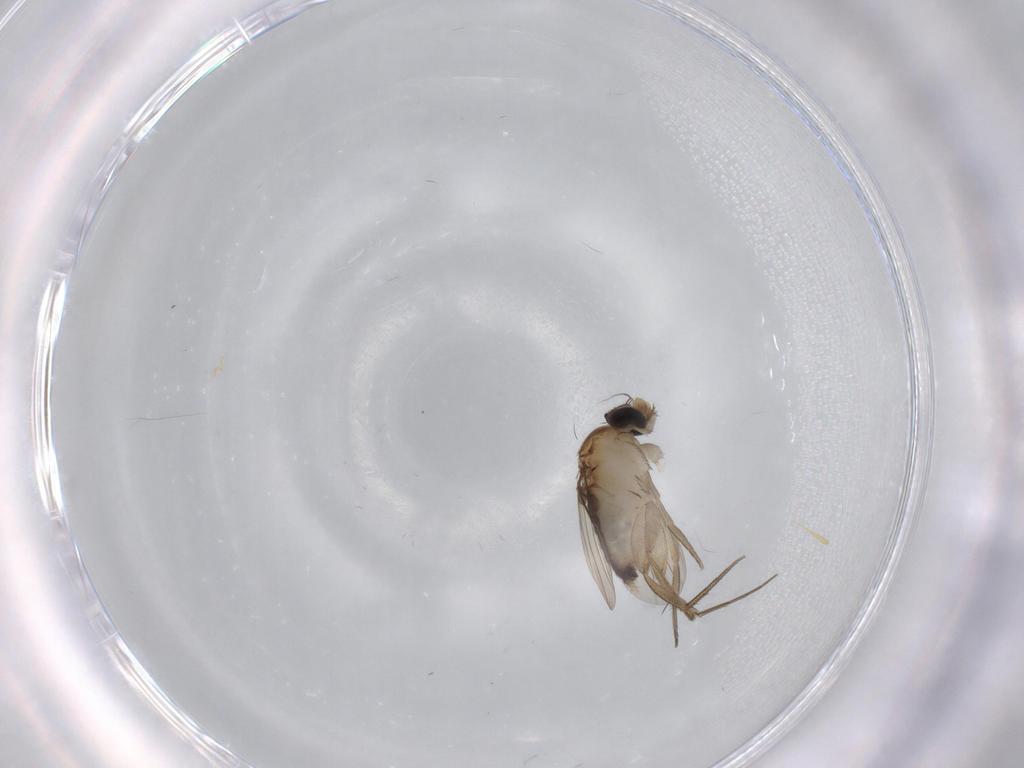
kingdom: Animalia
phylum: Arthropoda
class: Insecta
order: Diptera
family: Phoridae
